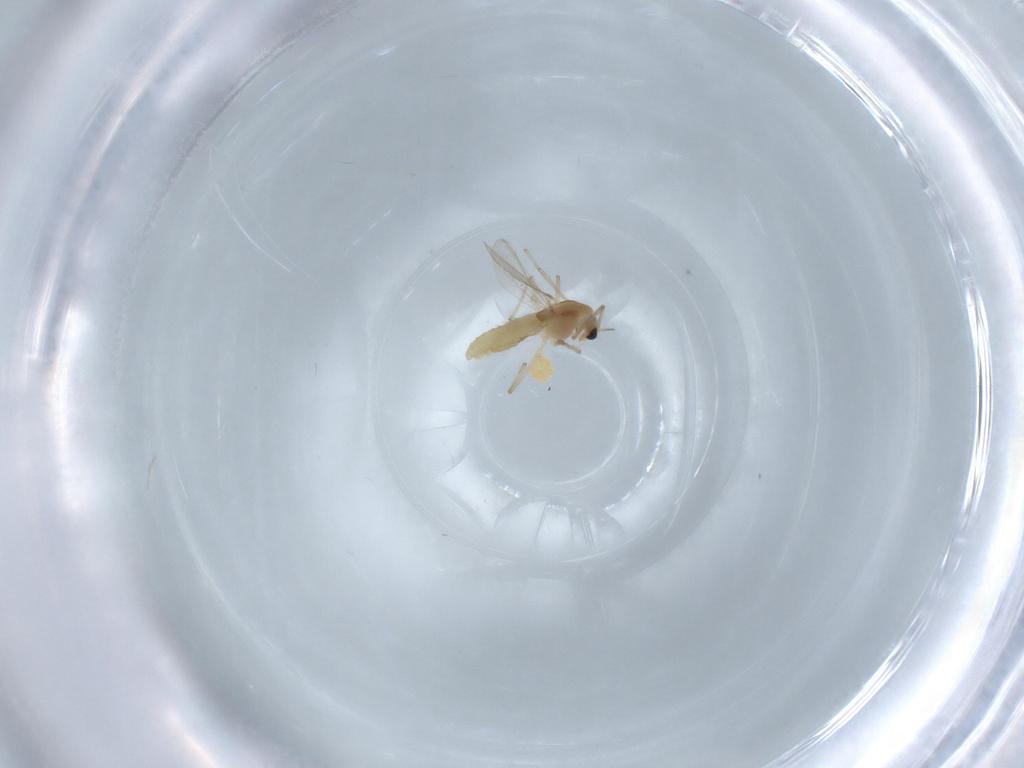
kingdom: Animalia
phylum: Arthropoda
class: Insecta
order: Diptera
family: Chironomidae
